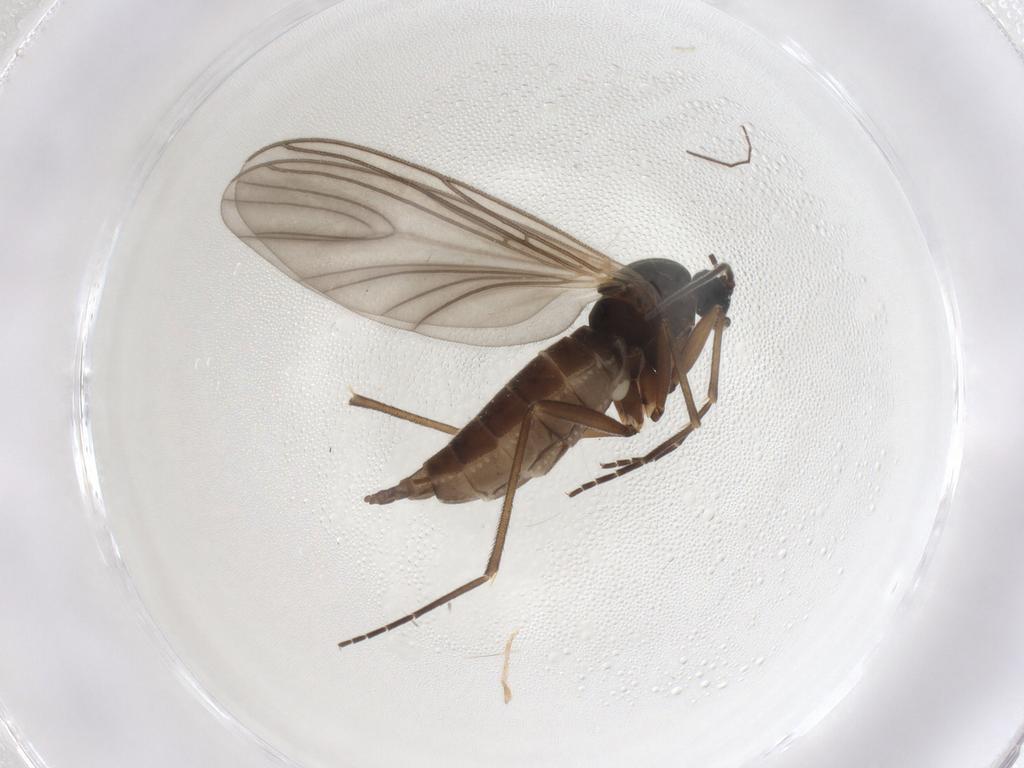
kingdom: Animalia
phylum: Arthropoda
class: Insecta
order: Diptera
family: Sciaridae
